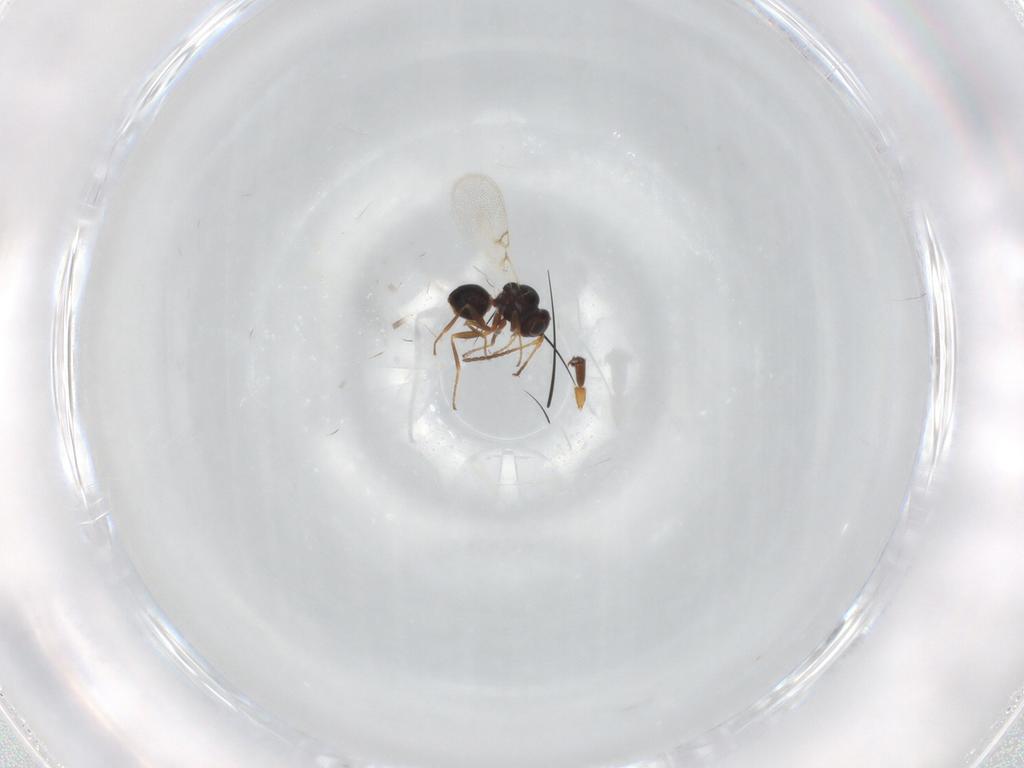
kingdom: Animalia
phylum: Arthropoda
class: Insecta
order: Hymenoptera
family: Figitidae
